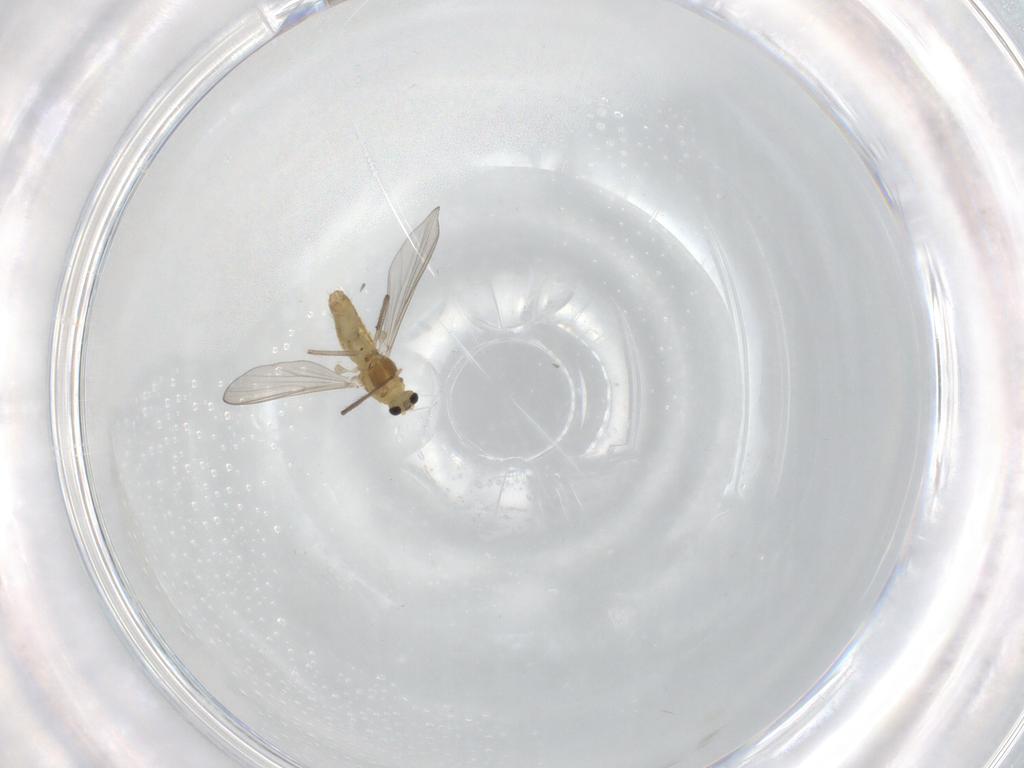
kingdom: Animalia
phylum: Arthropoda
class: Insecta
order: Diptera
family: Chironomidae
